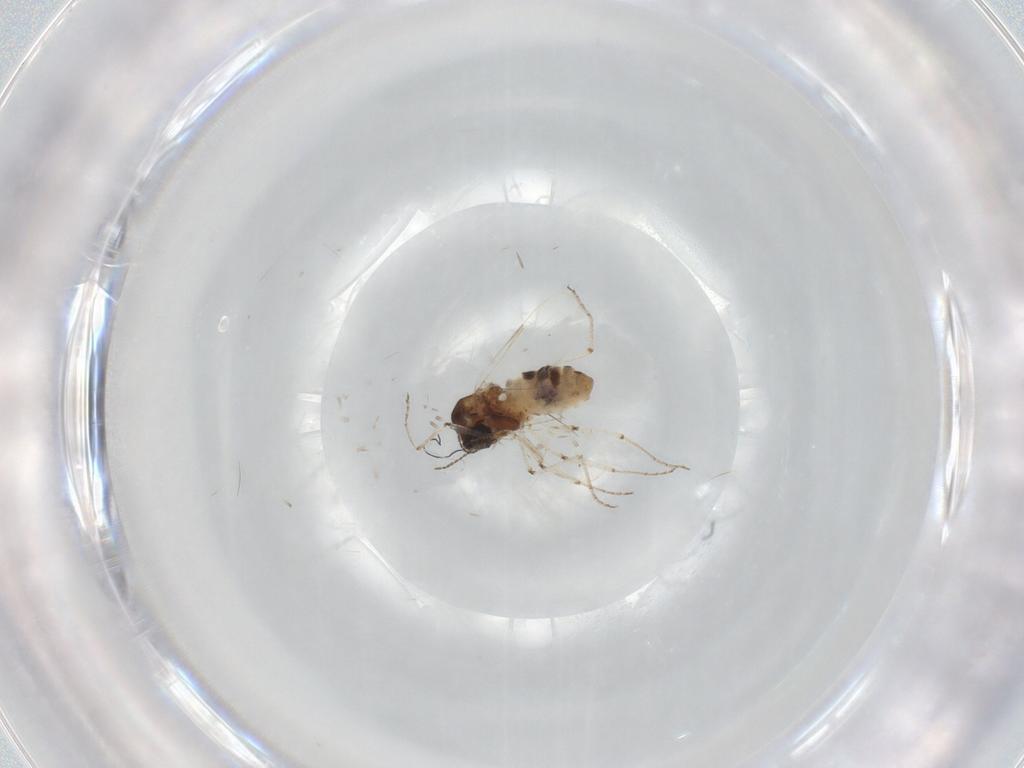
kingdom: Animalia
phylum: Arthropoda
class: Insecta
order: Diptera
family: Ceratopogonidae
